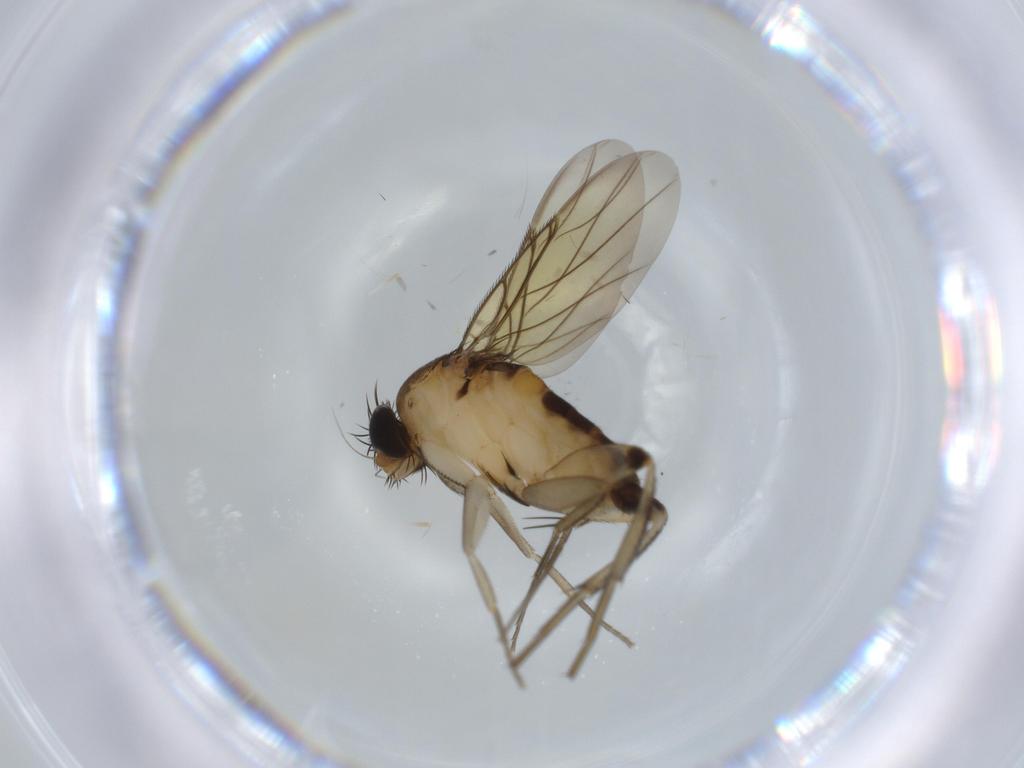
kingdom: Animalia
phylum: Arthropoda
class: Insecta
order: Diptera
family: Phoridae
